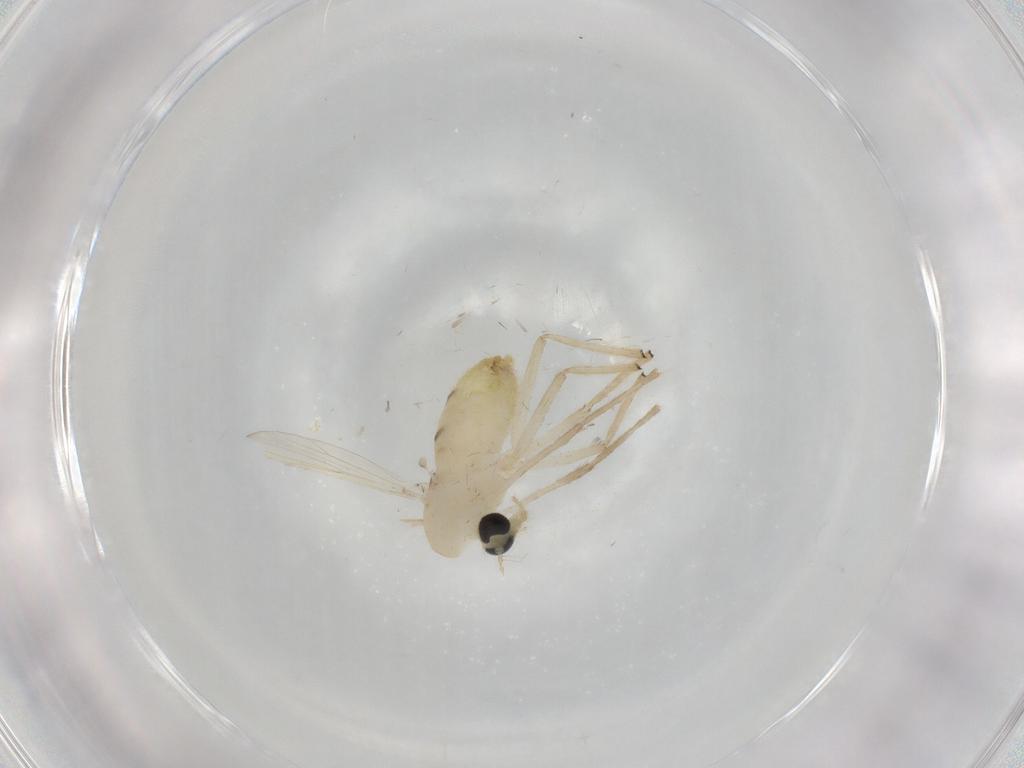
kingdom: Animalia
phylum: Arthropoda
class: Insecta
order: Diptera
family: Chironomidae
